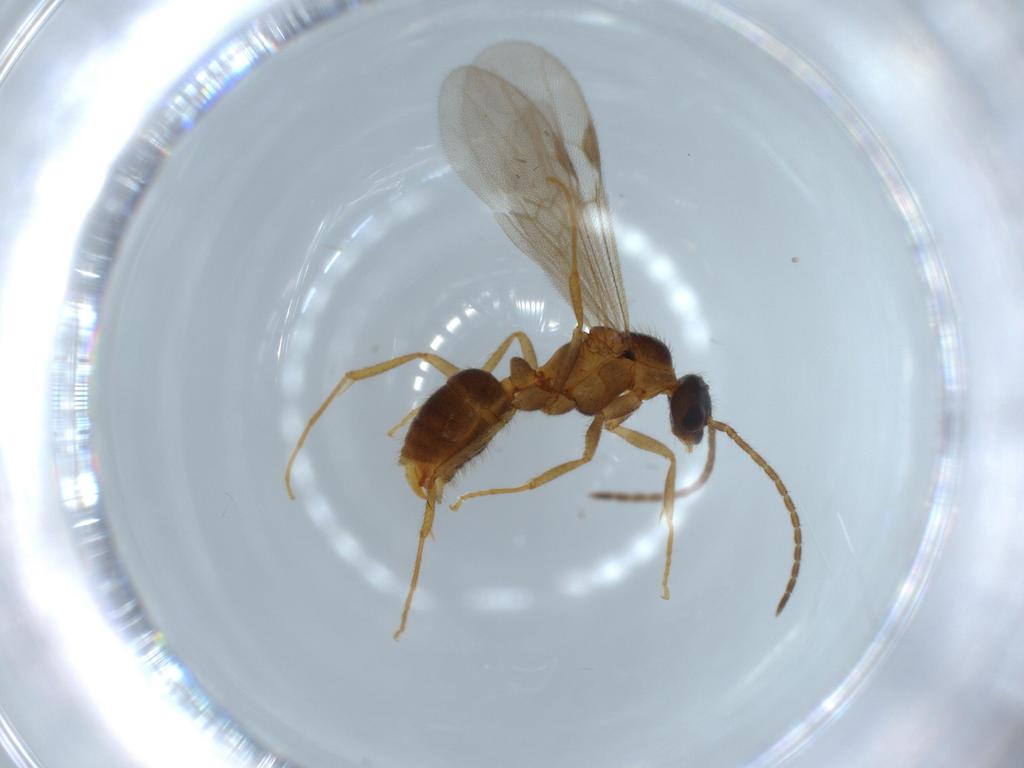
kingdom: Animalia
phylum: Arthropoda
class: Insecta
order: Hymenoptera
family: Formicidae
